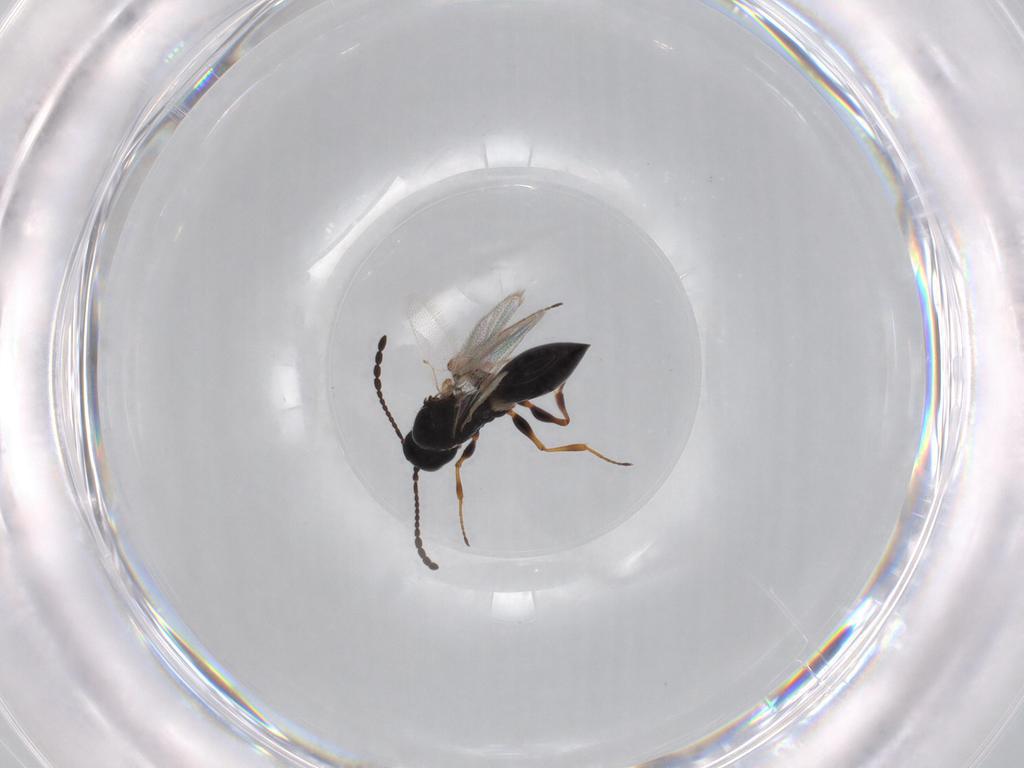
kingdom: Animalia
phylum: Arthropoda
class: Insecta
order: Hymenoptera
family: Figitidae
